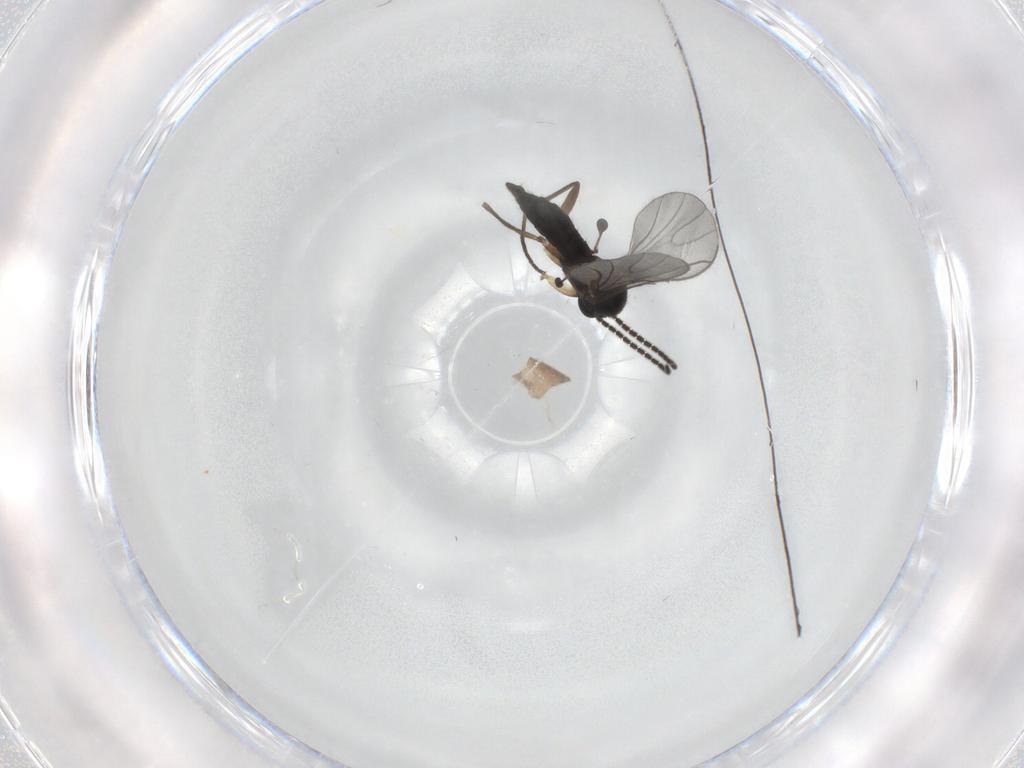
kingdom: Animalia
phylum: Arthropoda
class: Insecta
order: Diptera
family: Sciaridae
